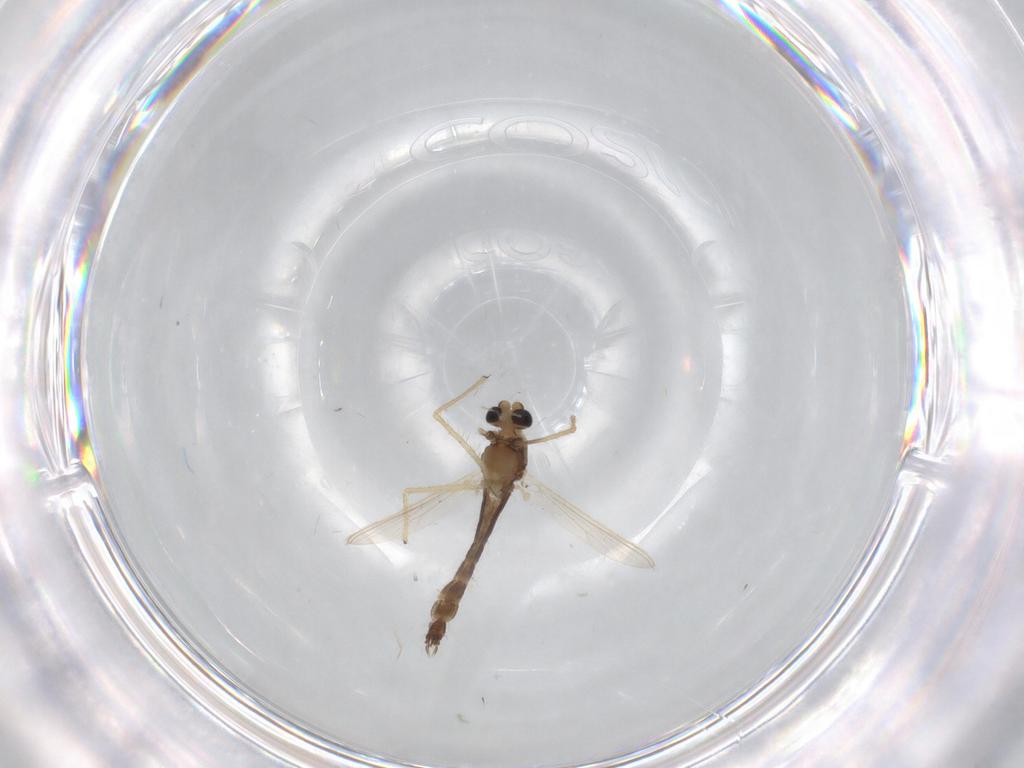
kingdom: Animalia
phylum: Arthropoda
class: Insecta
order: Diptera
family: Chironomidae
